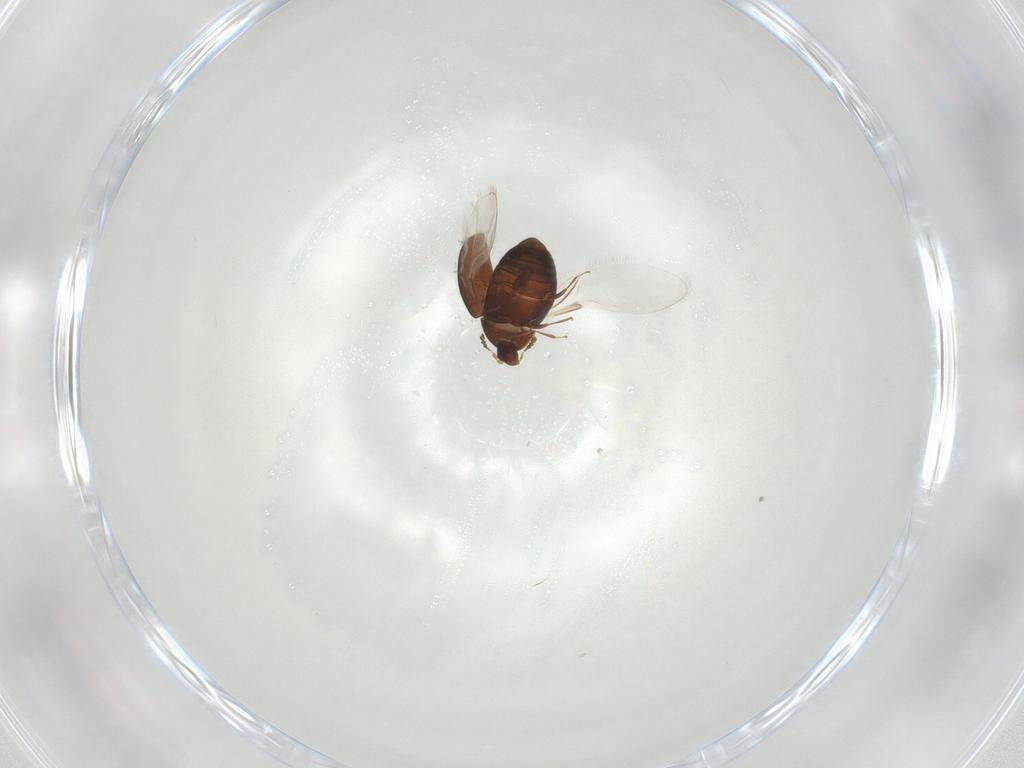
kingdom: Animalia
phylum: Arthropoda
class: Insecta
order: Coleoptera
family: Corylophidae
